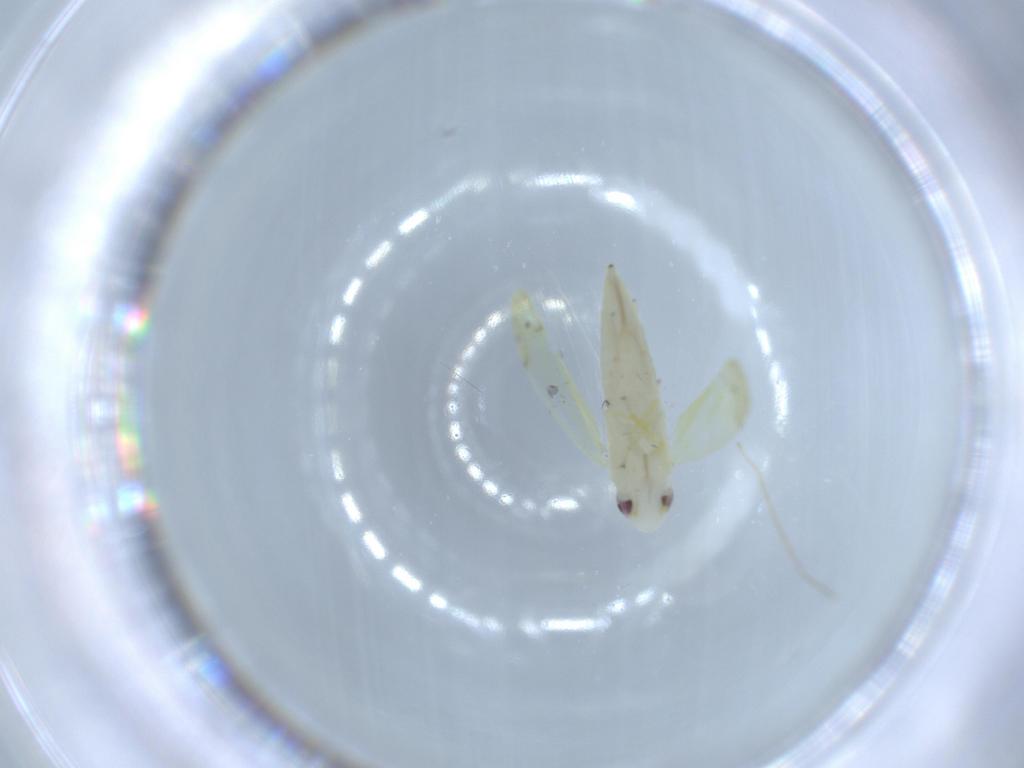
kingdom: Animalia
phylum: Arthropoda
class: Insecta
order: Hemiptera
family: Cicadellidae
